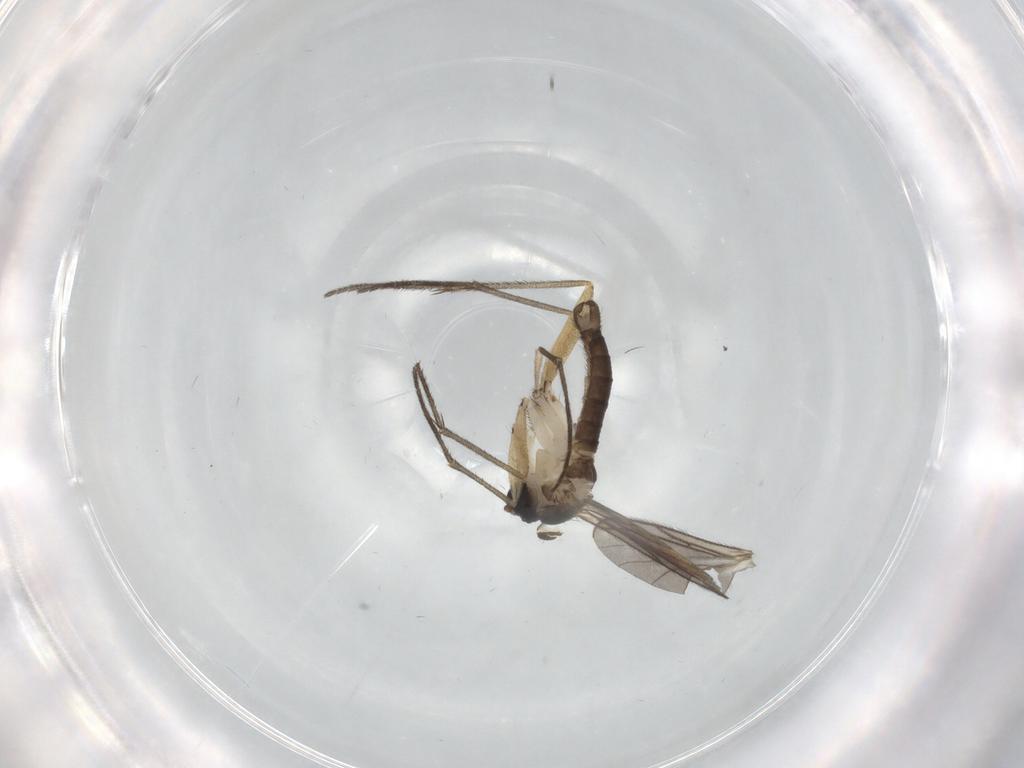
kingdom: Animalia
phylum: Arthropoda
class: Insecta
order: Diptera
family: Sciaridae
